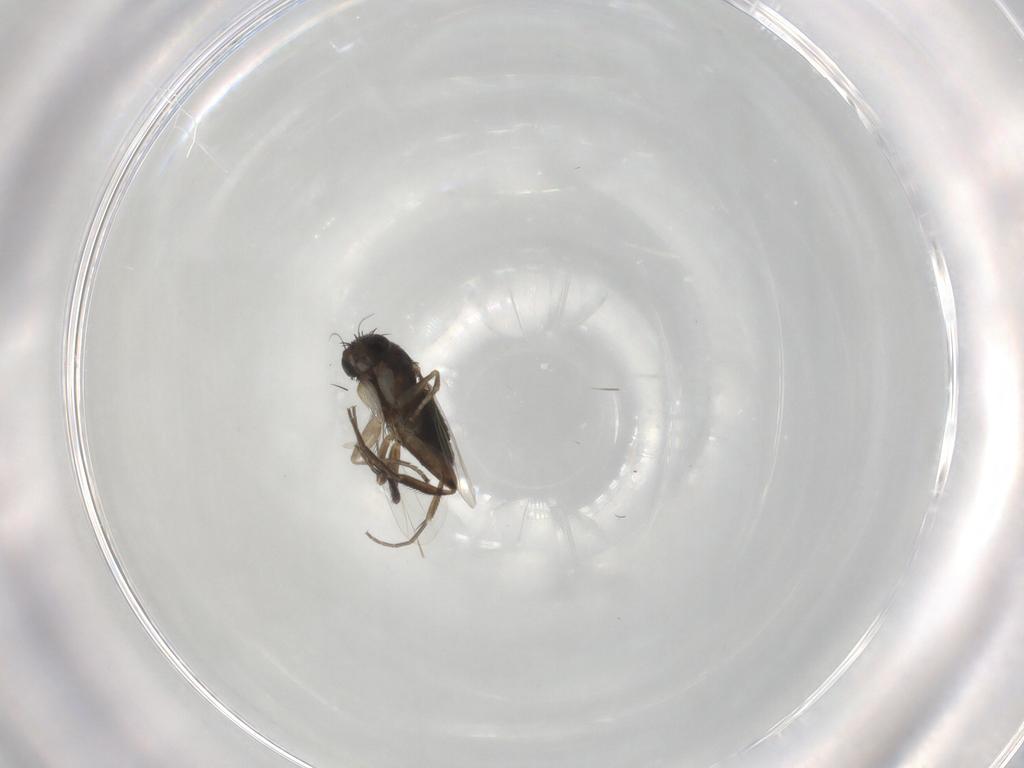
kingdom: Animalia
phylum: Arthropoda
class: Insecta
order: Diptera
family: Phoridae
